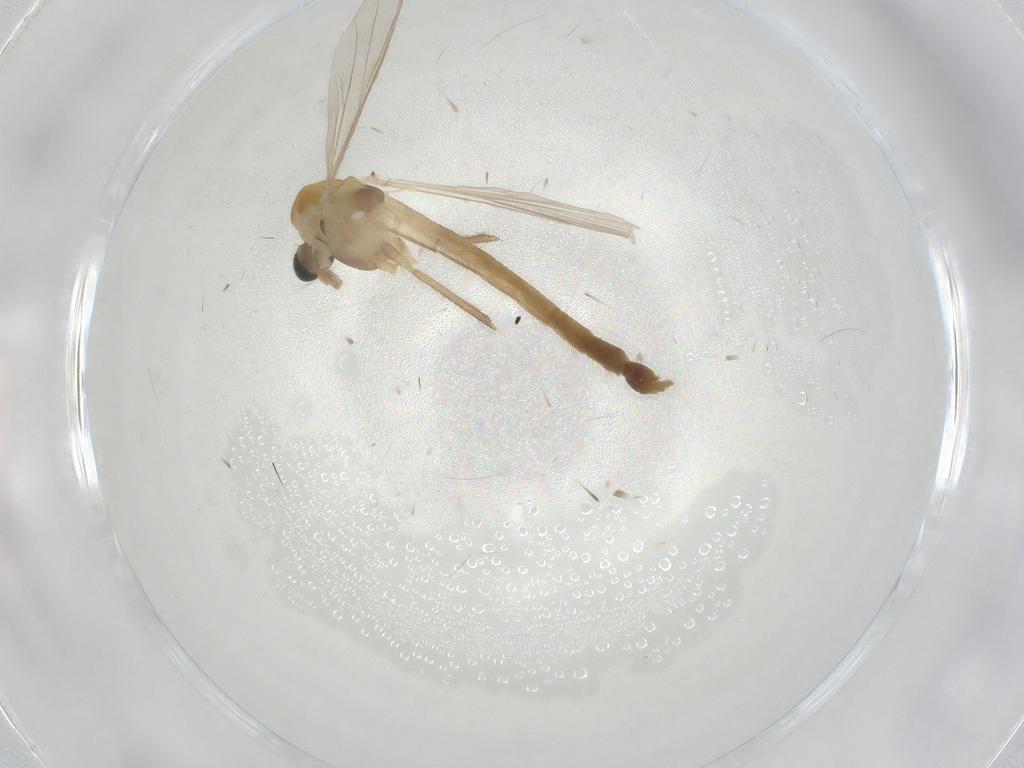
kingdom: Animalia
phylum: Arthropoda
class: Insecta
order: Diptera
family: Chironomidae
